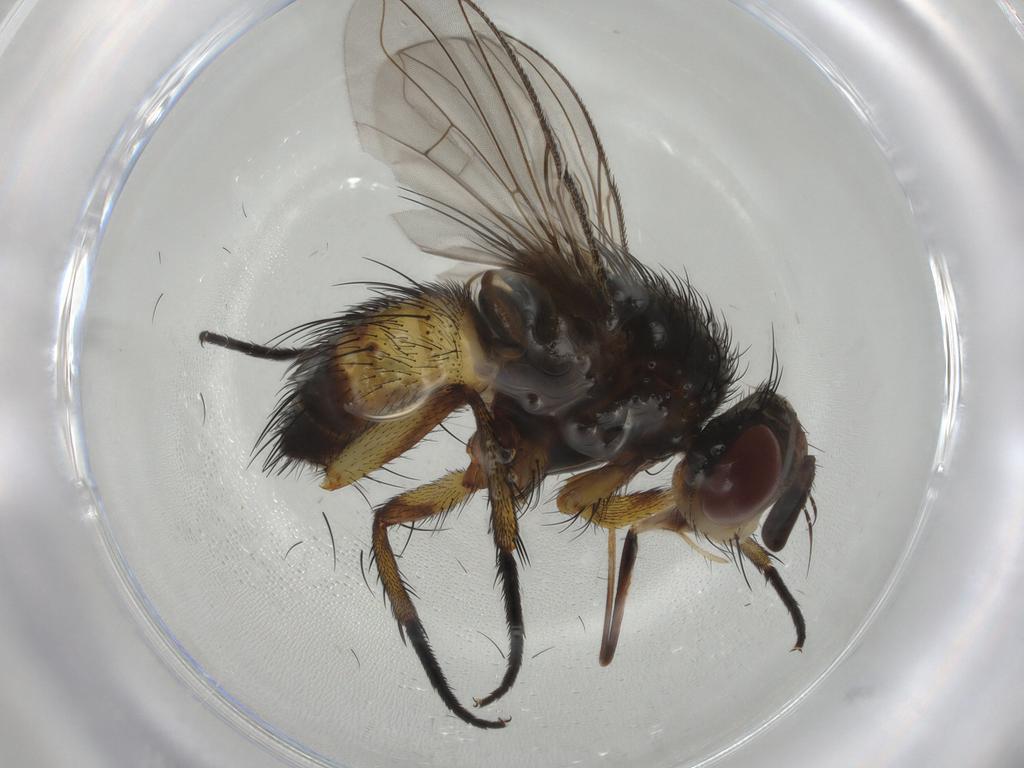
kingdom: Animalia
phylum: Arthropoda
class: Insecta
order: Diptera
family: Tachinidae
